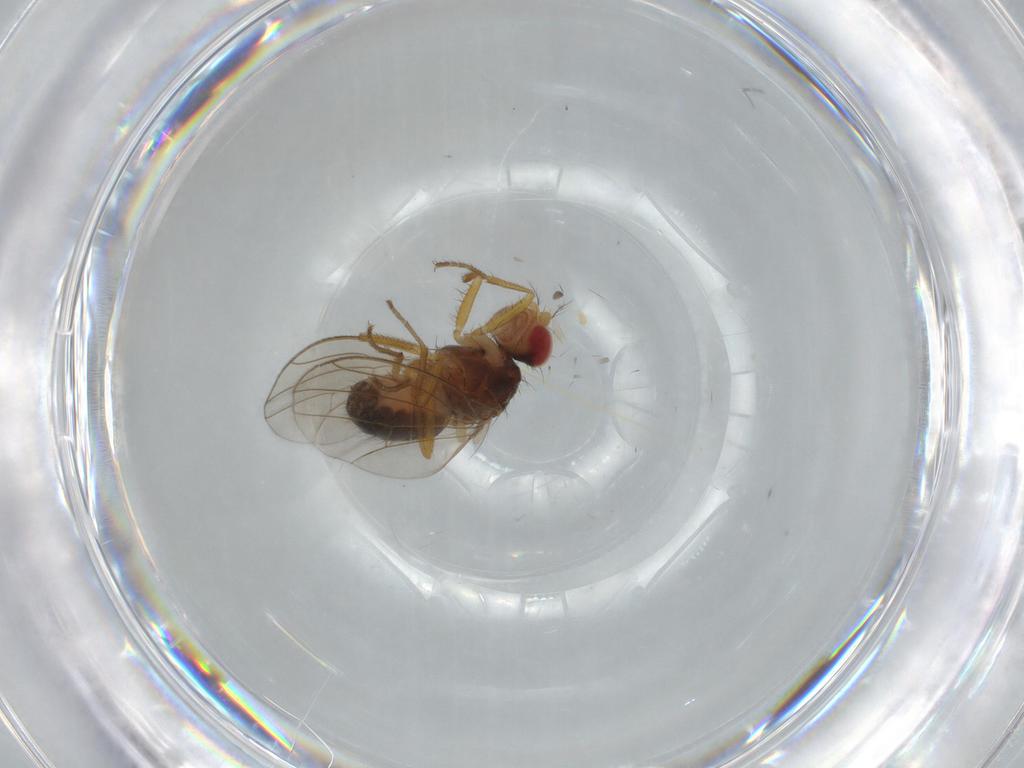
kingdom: Animalia
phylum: Arthropoda
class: Insecta
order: Diptera
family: Drosophilidae
